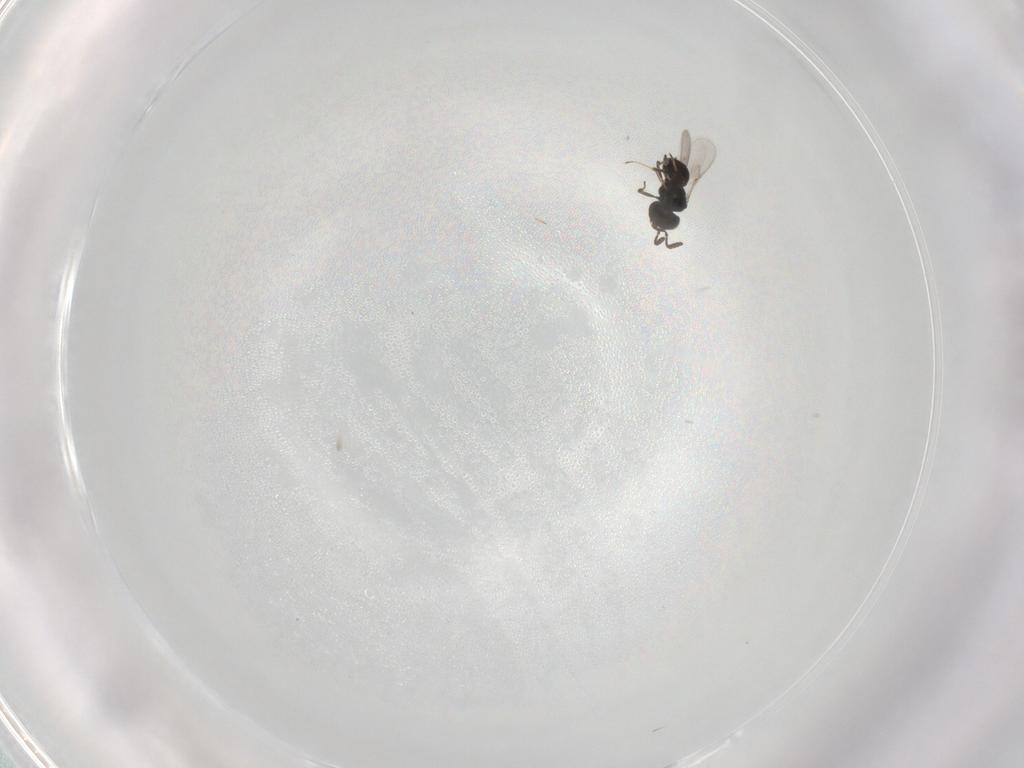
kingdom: Animalia
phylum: Arthropoda
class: Insecta
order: Hymenoptera
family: Scelionidae
